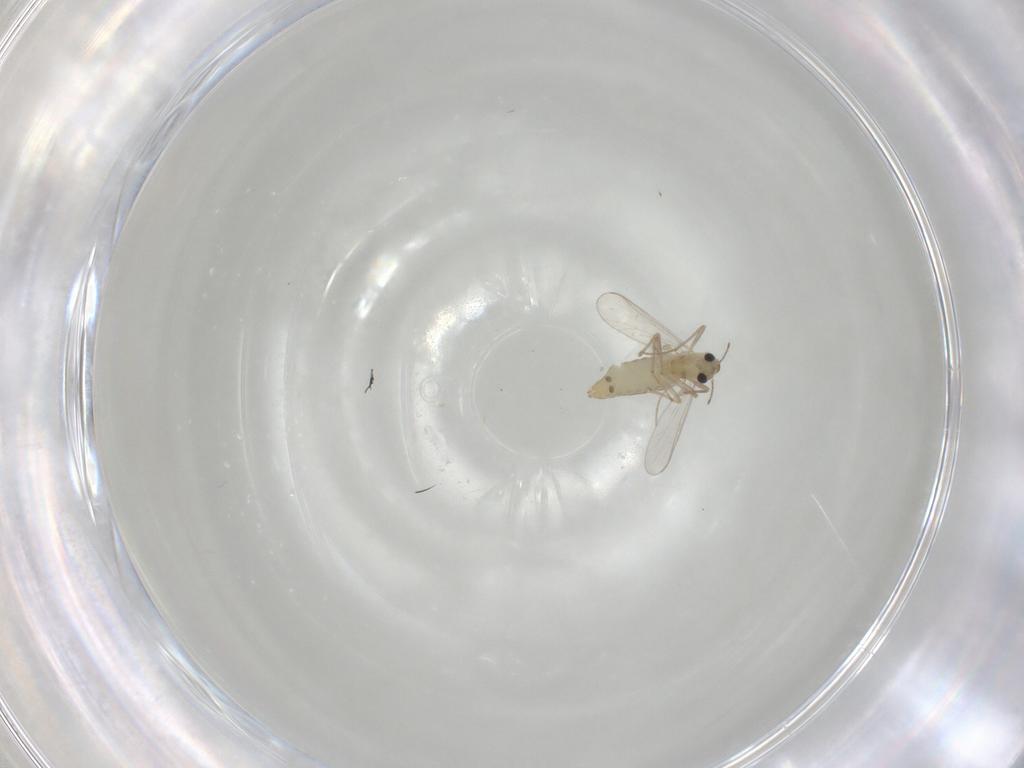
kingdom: Animalia
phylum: Arthropoda
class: Insecta
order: Diptera
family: Chironomidae
